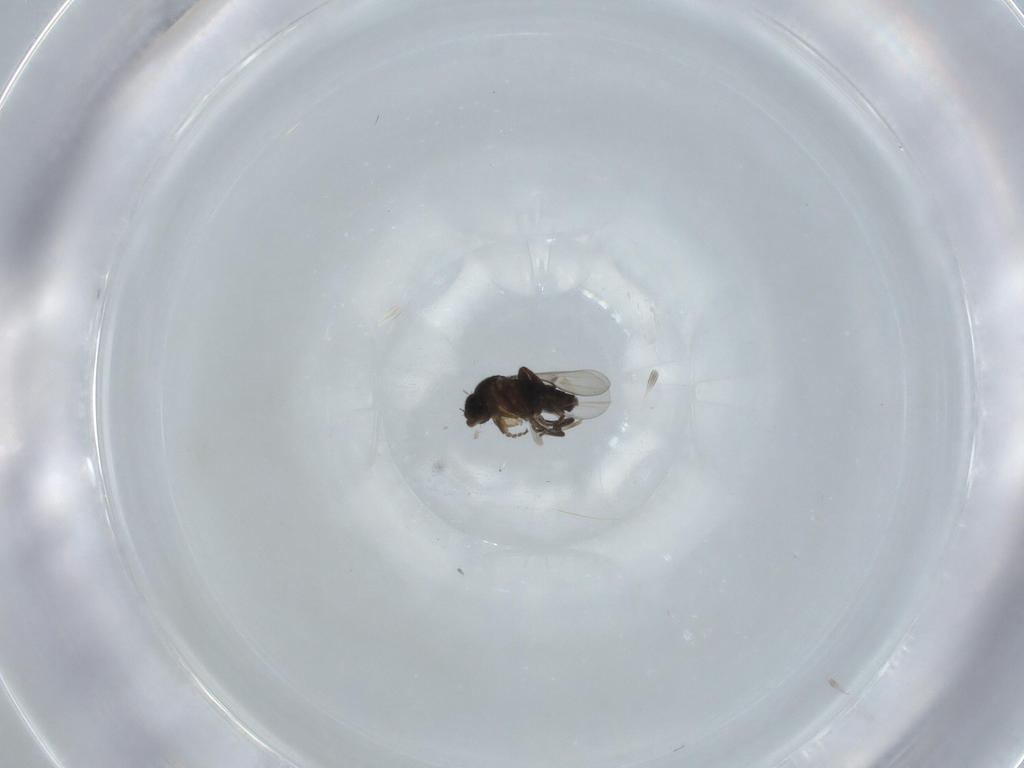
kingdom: Animalia
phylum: Arthropoda
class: Insecta
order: Diptera
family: Phoridae
